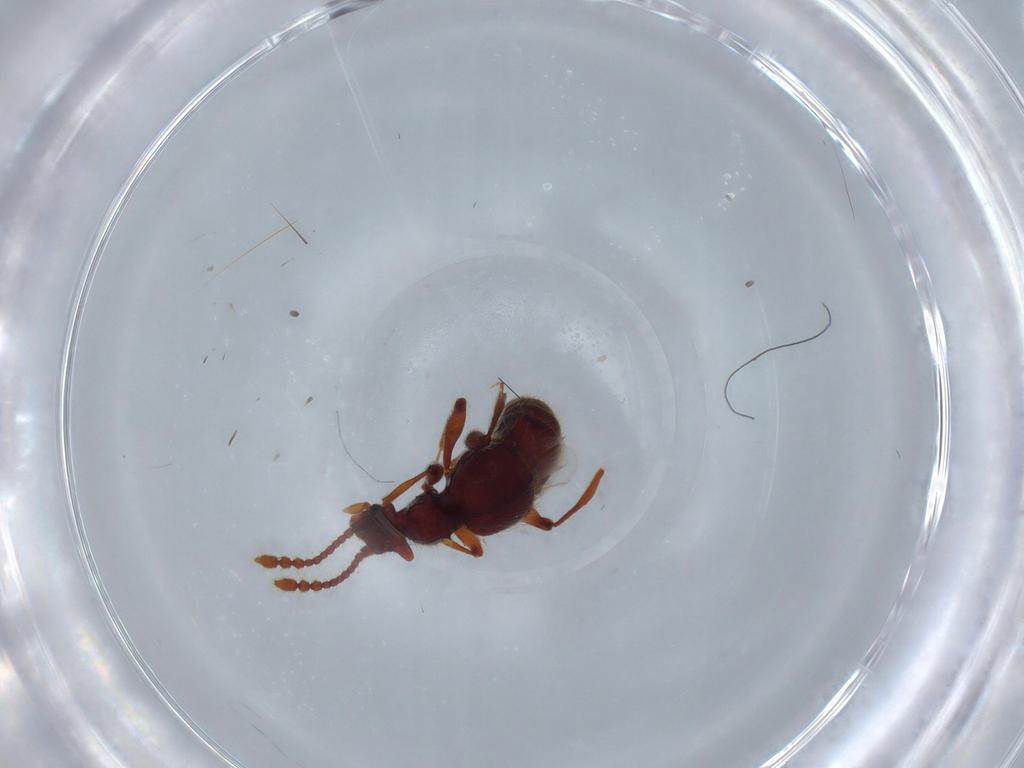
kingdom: Animalia
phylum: Arthropoda
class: Insecta
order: Coleoptera
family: Staphylinidae
